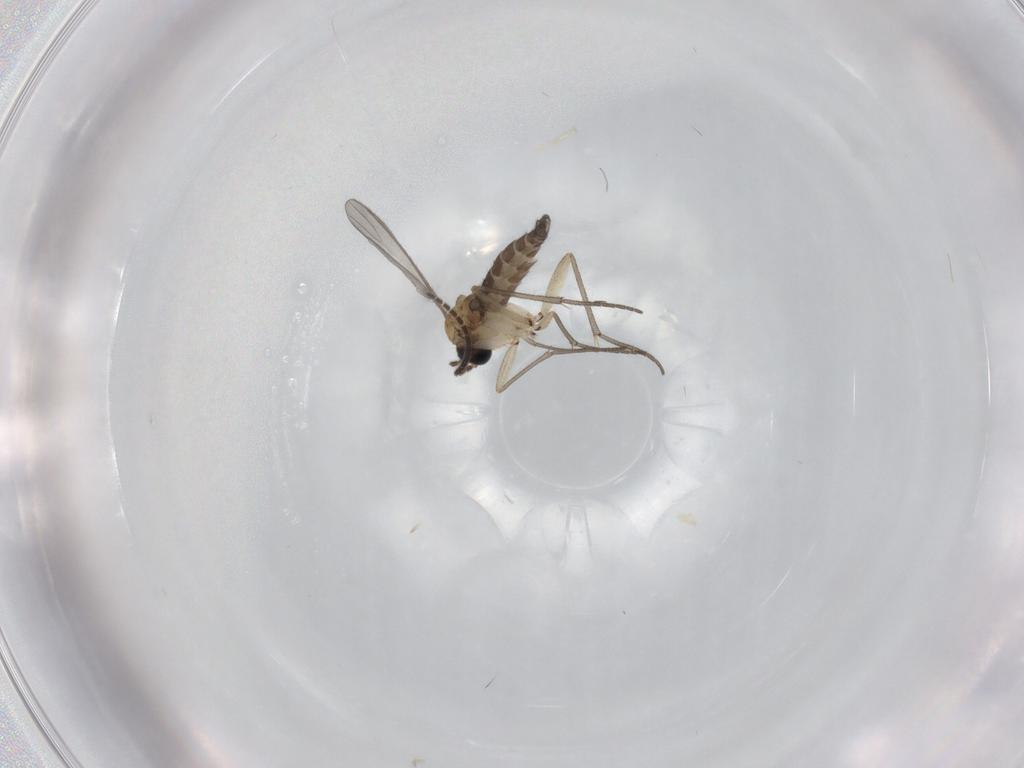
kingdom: Animalia
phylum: Arthropoda
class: Insecta
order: Diptera
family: Sciaridae
